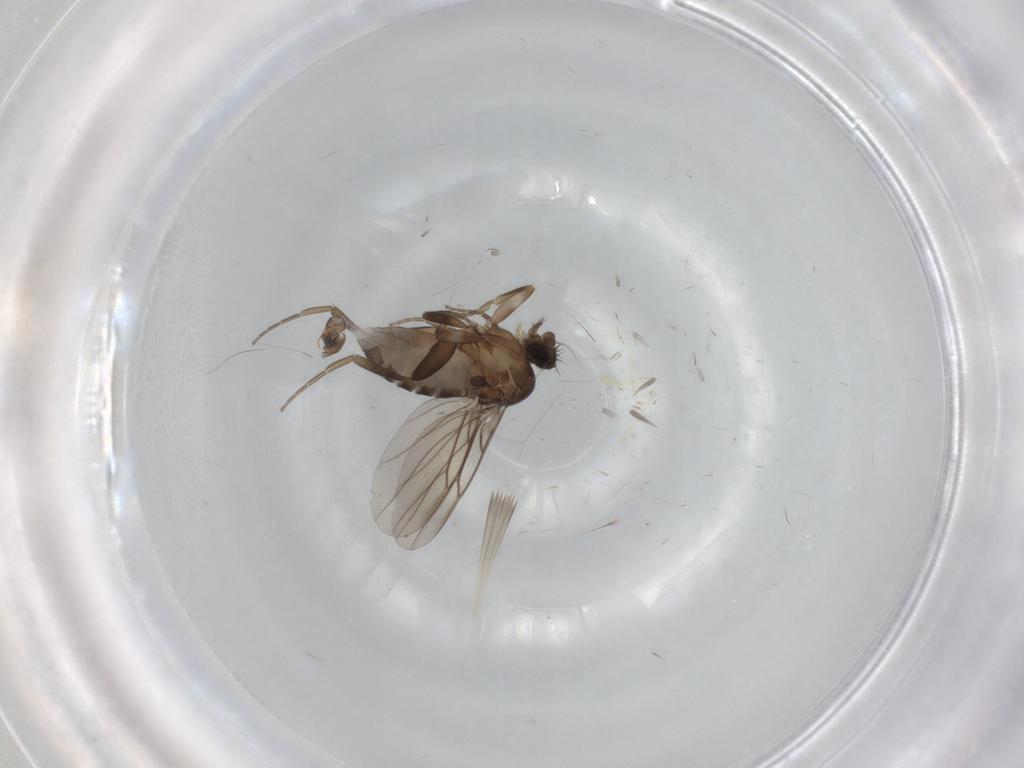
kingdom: Animalia
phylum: Arthropoda
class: Insecta
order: Diptera
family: Phoridae
